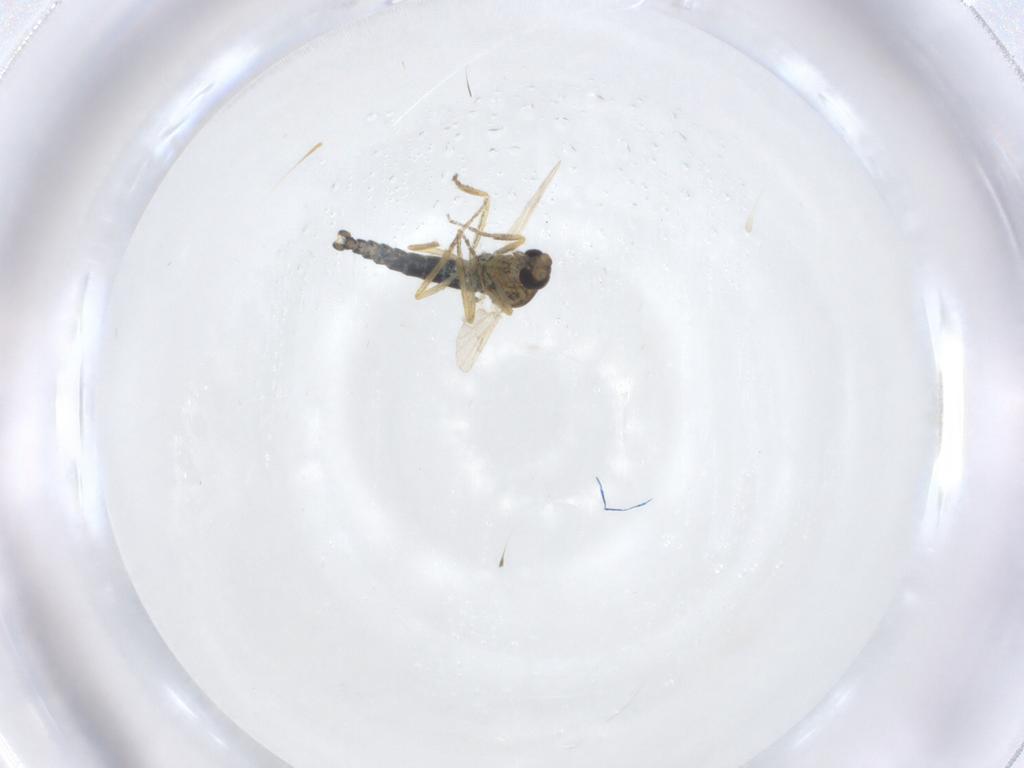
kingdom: Animalia
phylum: Arthropoda
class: Insecta
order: Diptera
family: Ceratopogonidae
